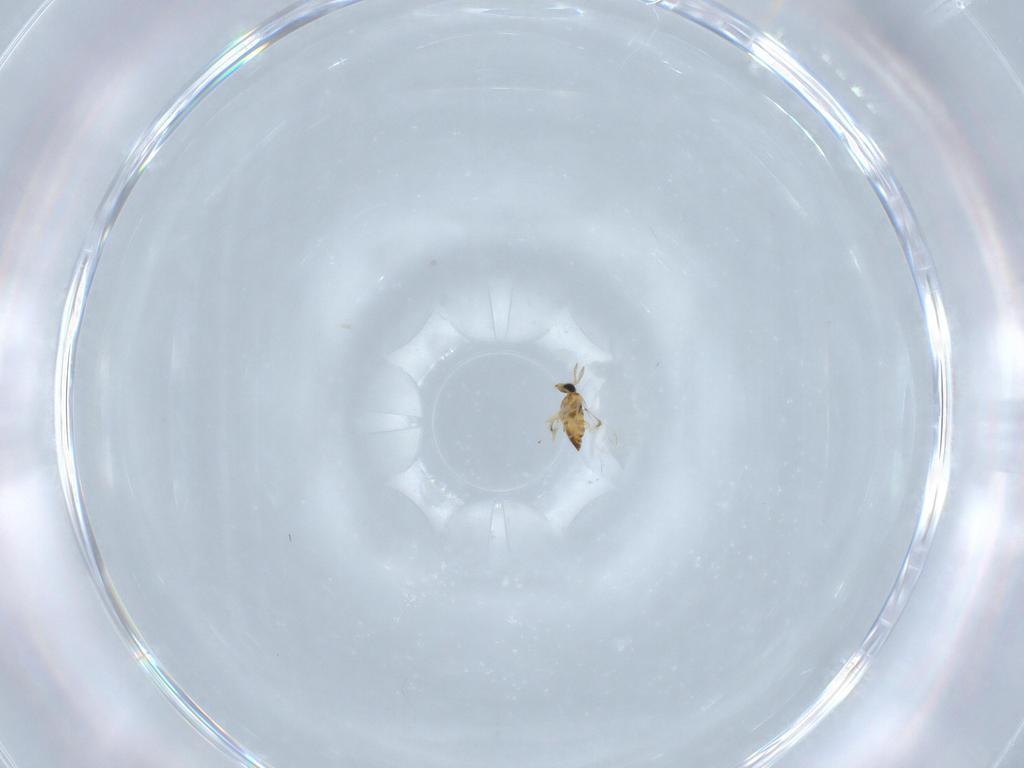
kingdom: Animalia
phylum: Arthropoda
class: Insecta
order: Hymenoptera
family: Trichogrammatidae
